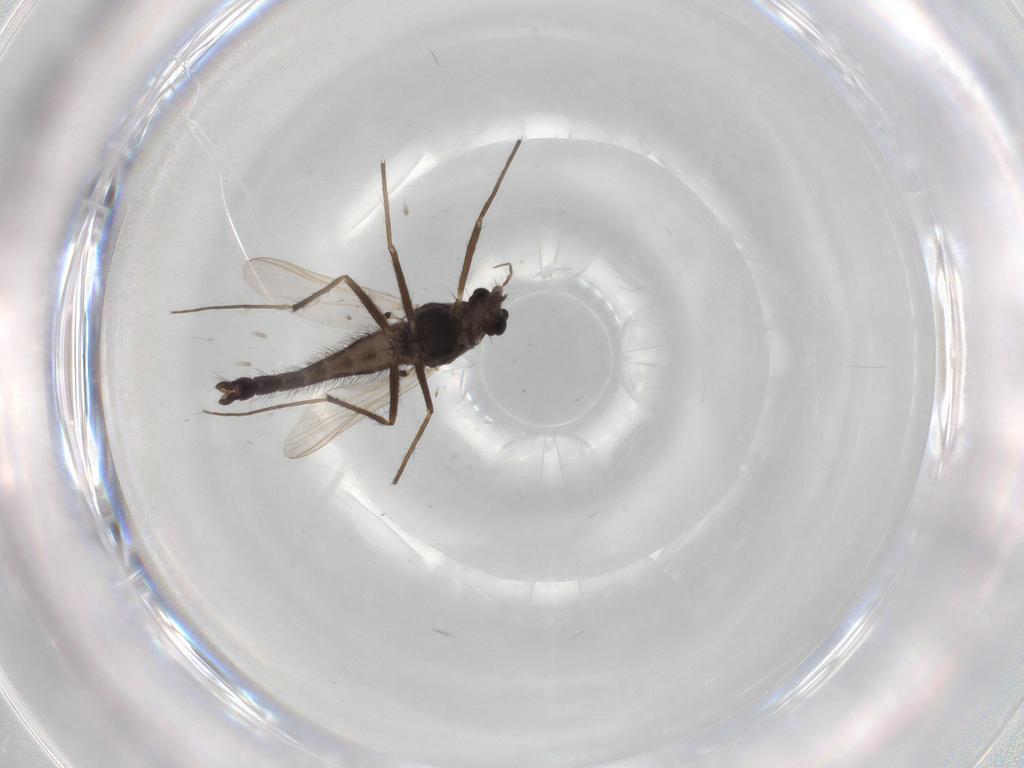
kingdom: Animalia
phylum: Arthropoda
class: Insecta
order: Diptera
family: Chironomidae
